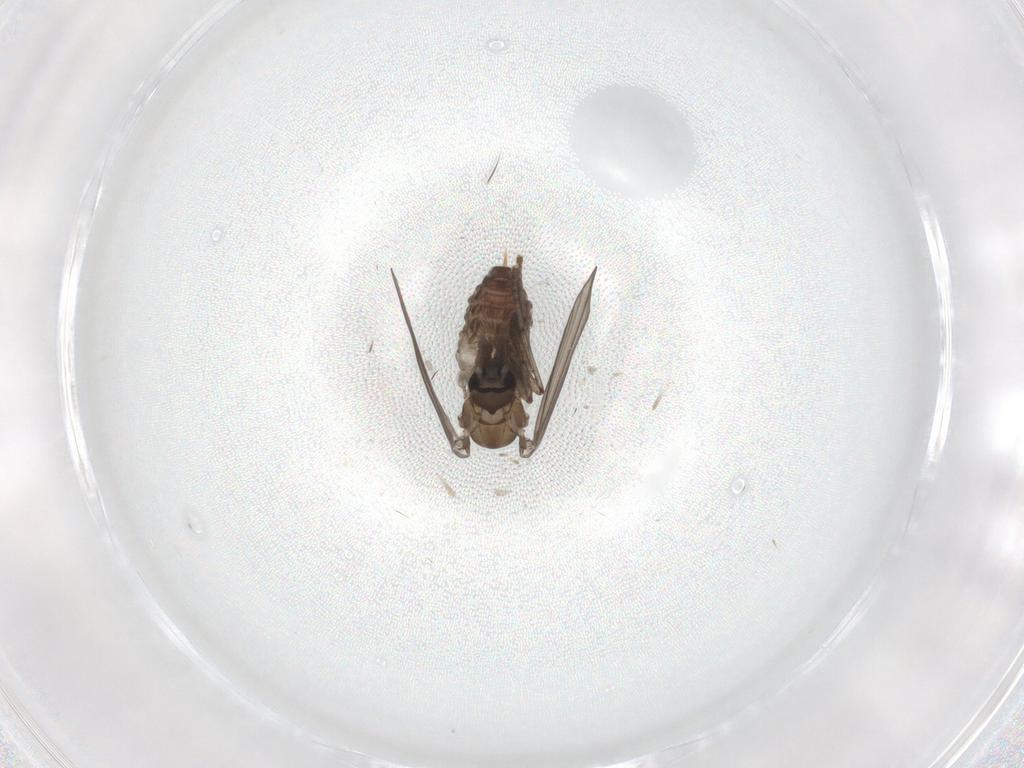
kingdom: Animalia
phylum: Arthropoda
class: Insecta
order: Diptera
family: Psychodidae
